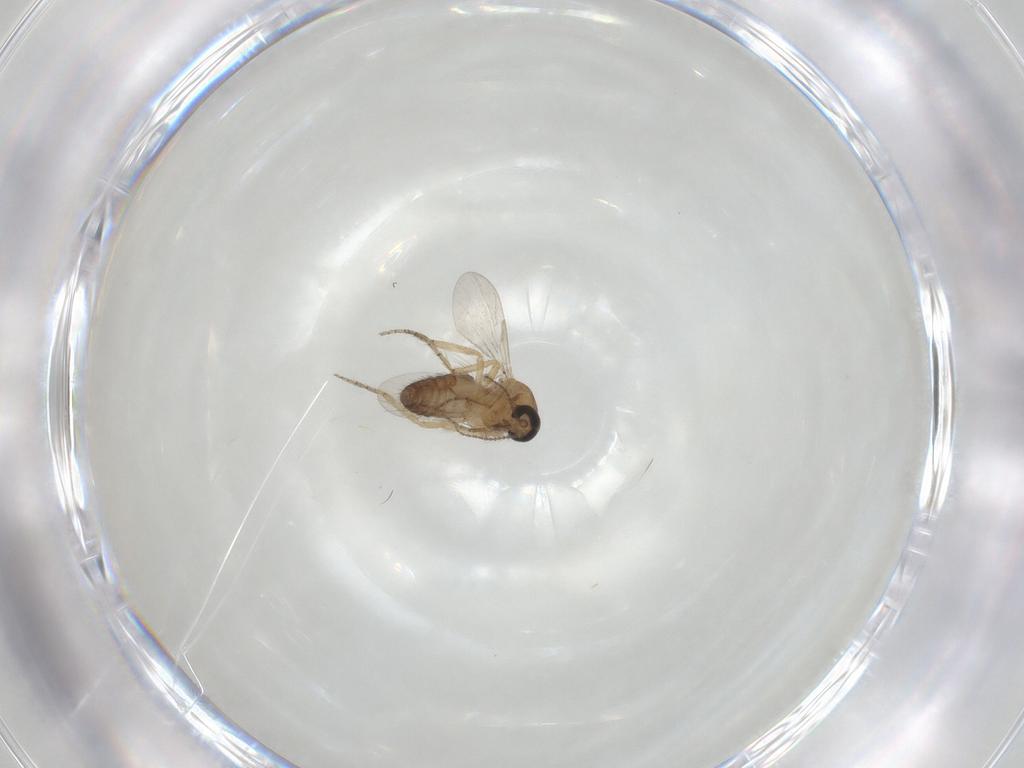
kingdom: Animalia
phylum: Arthropoda
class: Insecta
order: Diptera
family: Ceratopogonidae
